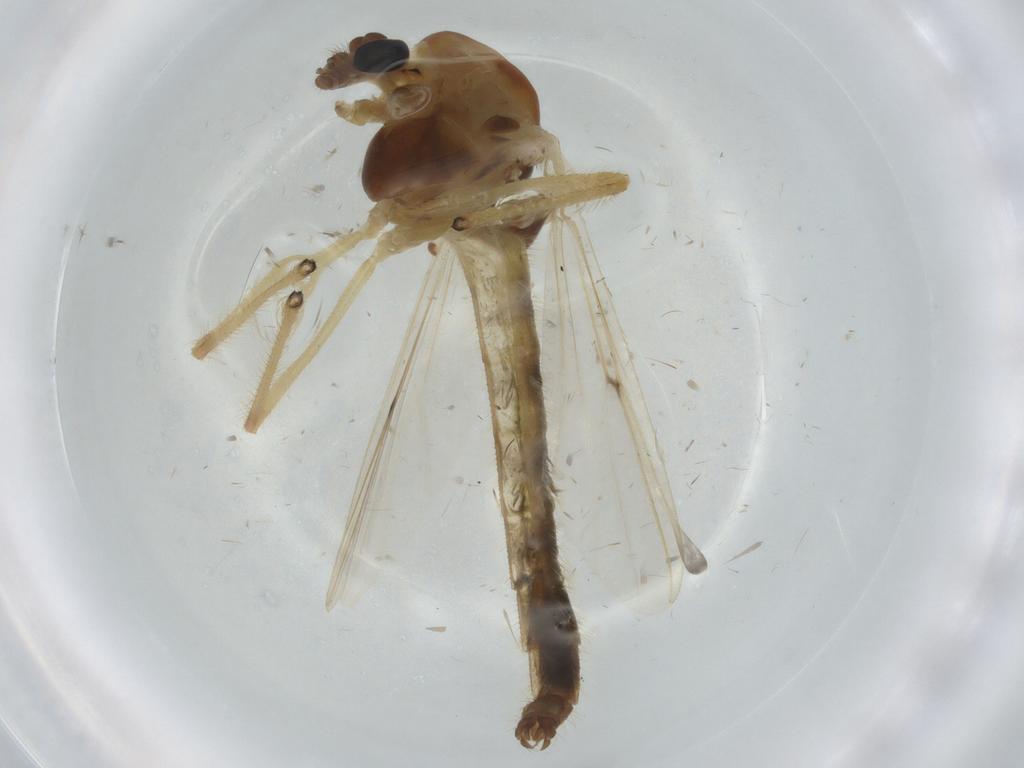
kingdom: Animalia
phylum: Arthropoda
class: Insecta
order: Diptera
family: Chironomidae
